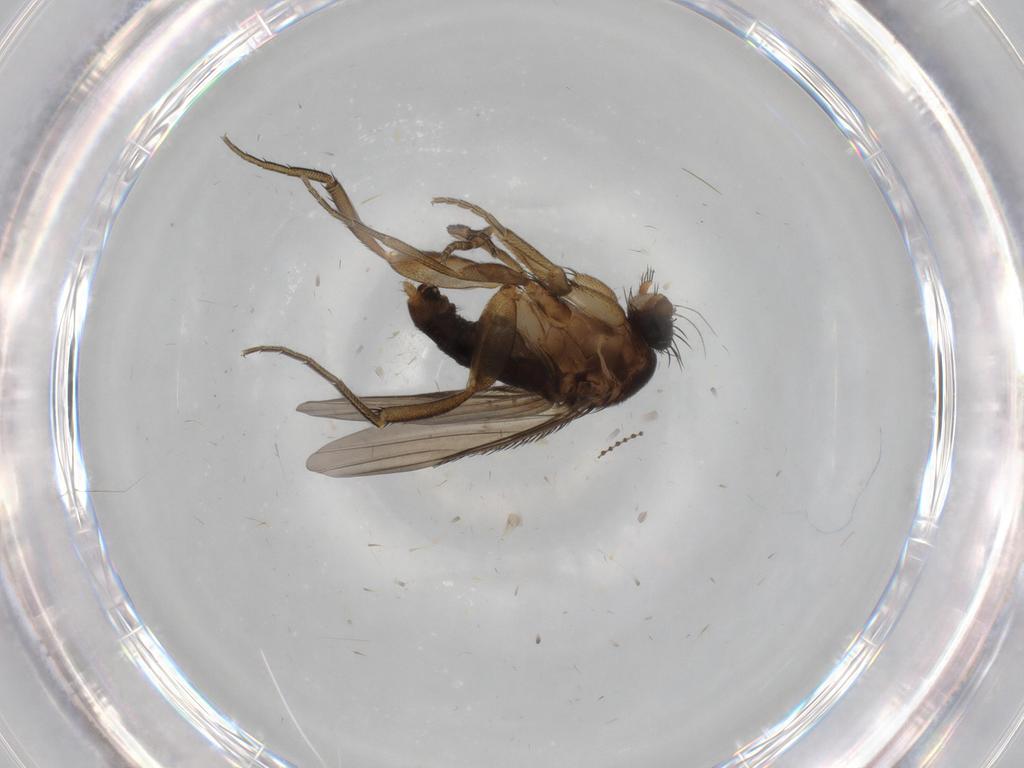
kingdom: Animalia
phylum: Arthropoda
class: Insecta
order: Diptera
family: Phoridae
